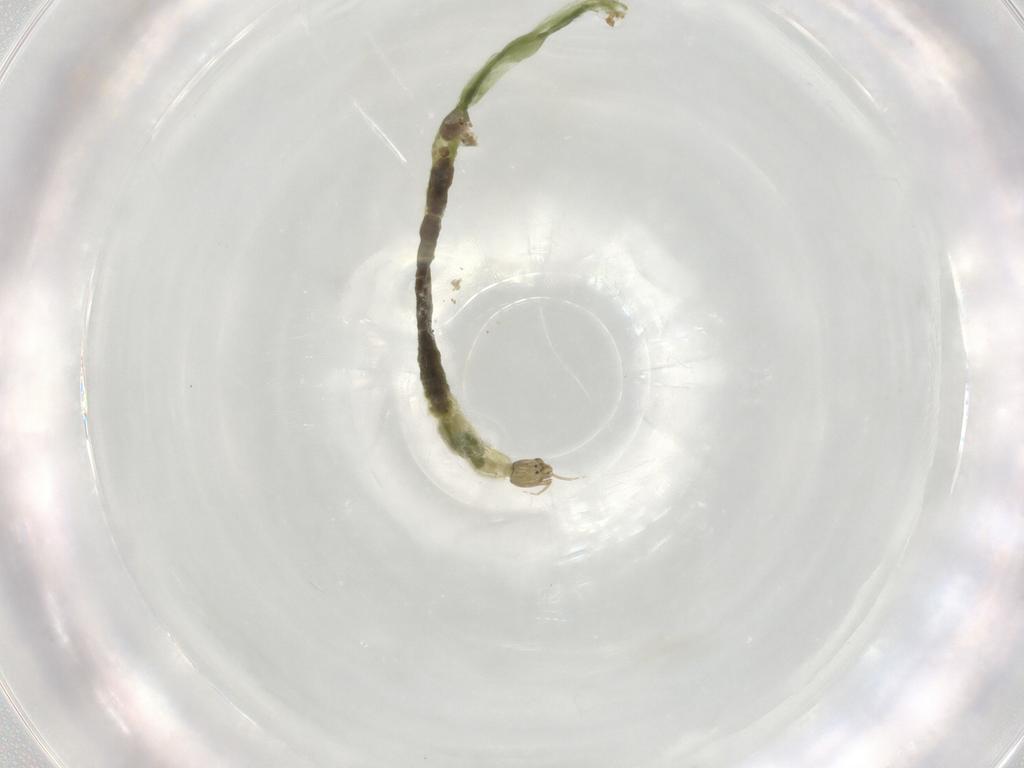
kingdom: Animalia
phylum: Arthropoda
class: Insecta
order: Diptera
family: Chironomidae
